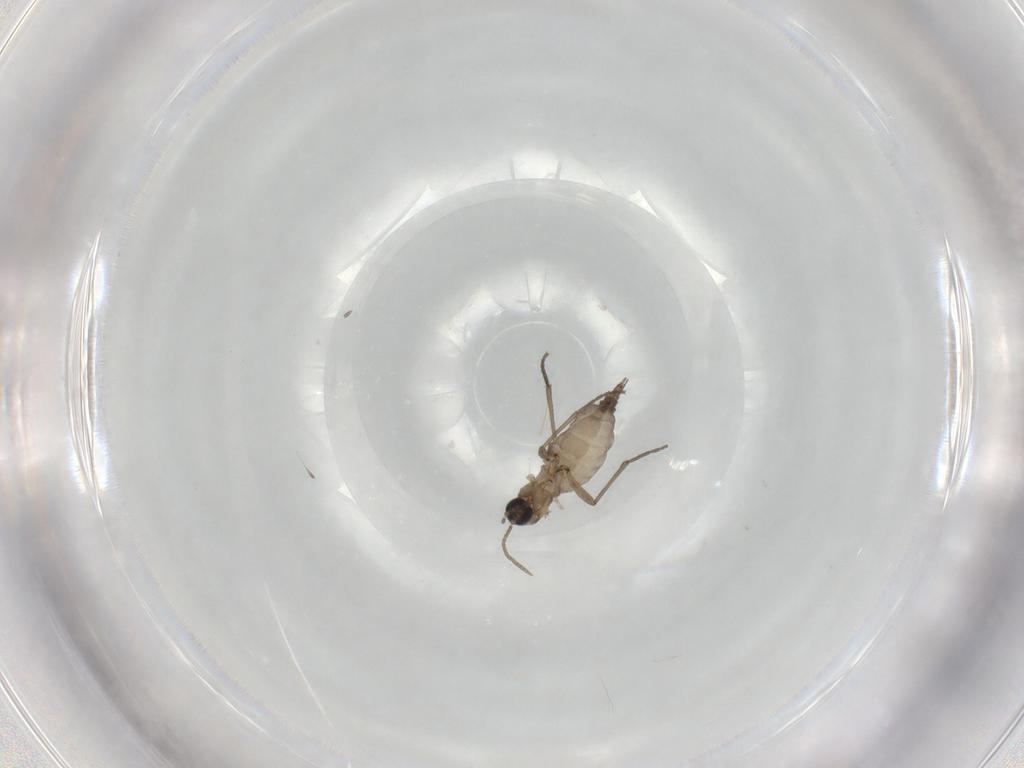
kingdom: Animalia
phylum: Arthropoda
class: Insecta
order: Diptera
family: Sciaridae
